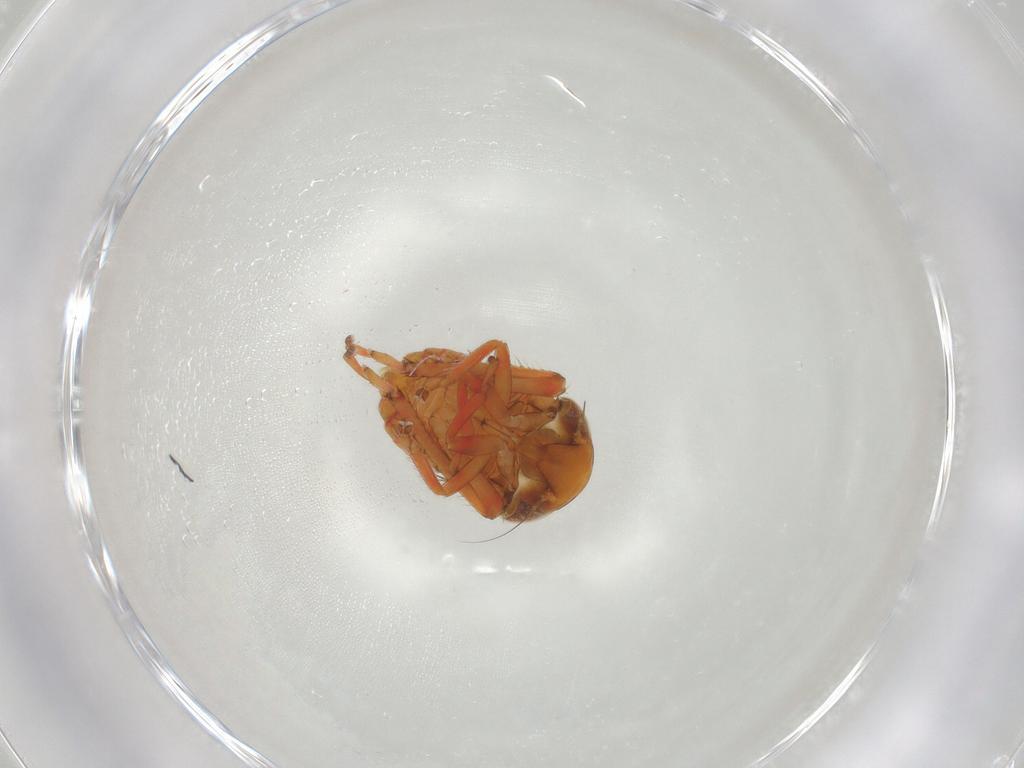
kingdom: Animalia
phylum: Arthropoda
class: Insecta
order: Hemiptera
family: Cicadellidae
